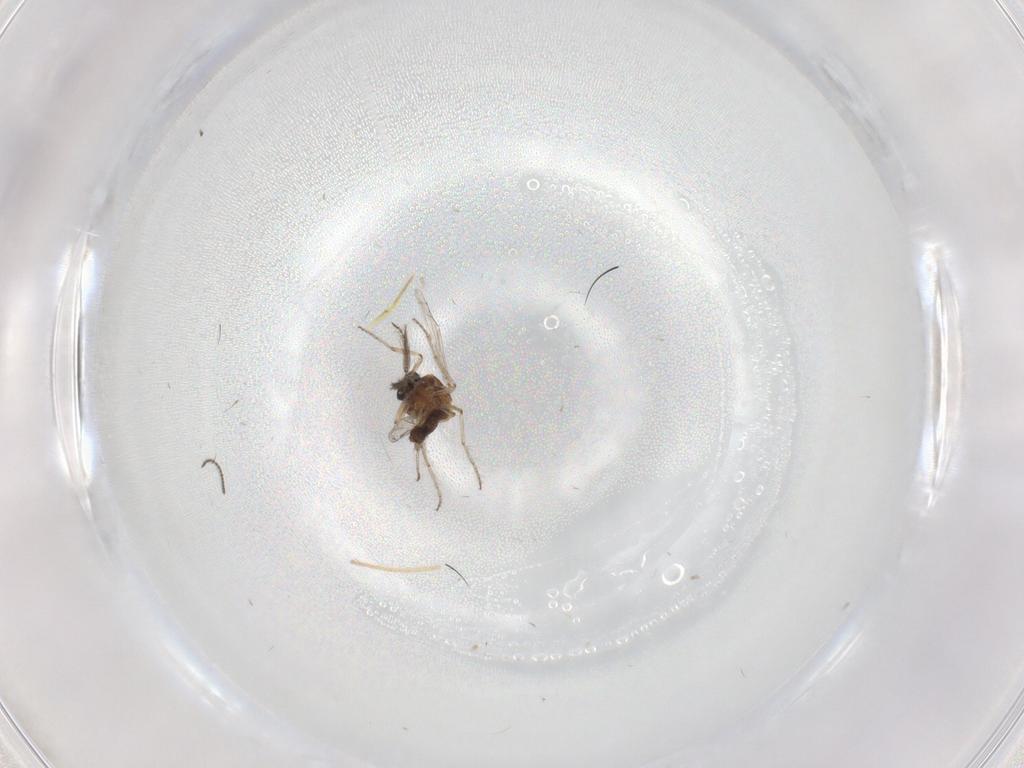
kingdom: Animalia
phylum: Arthropoda
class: Insecta
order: Diptera
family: Ceratopogonidae
